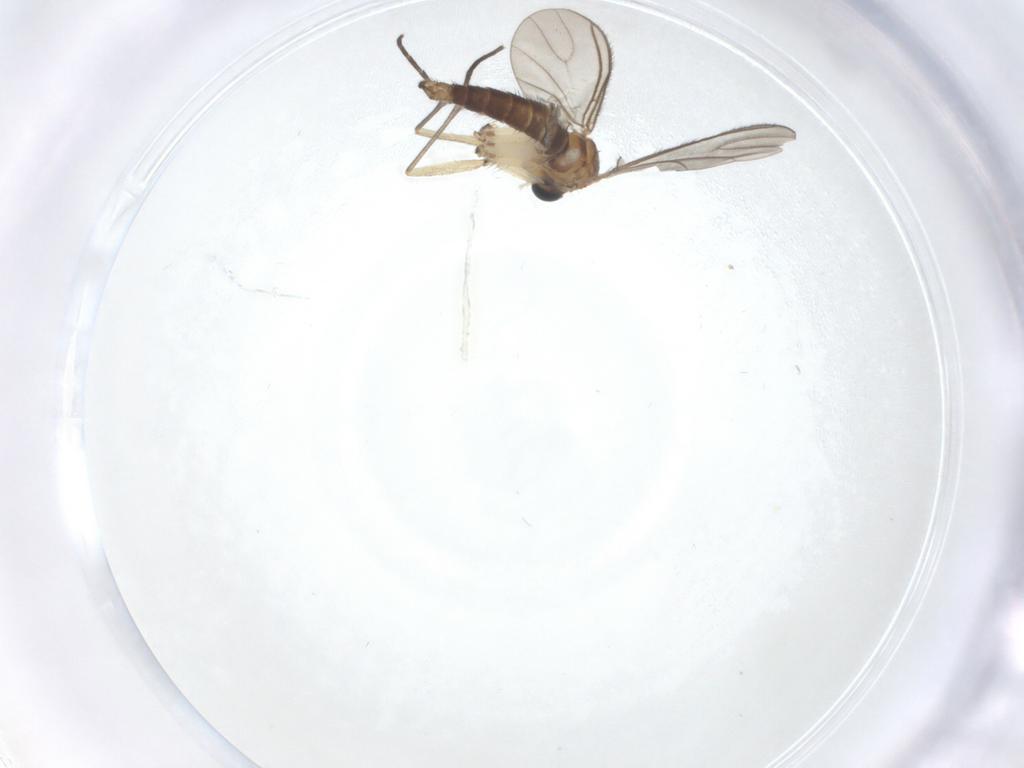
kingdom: Animalia
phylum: Arthropoda
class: Insecta
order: Diptera
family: Sciaridae
